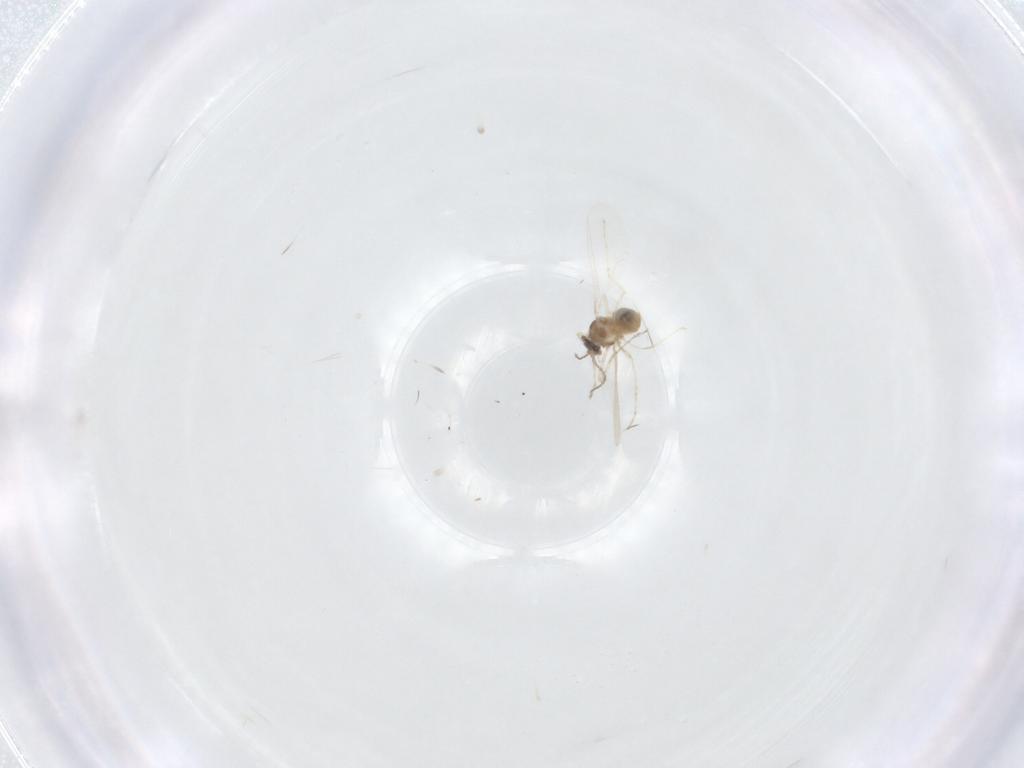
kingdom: Animalia
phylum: Arthropoda
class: Insecta
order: Diptera
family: Cecidomyiidae
